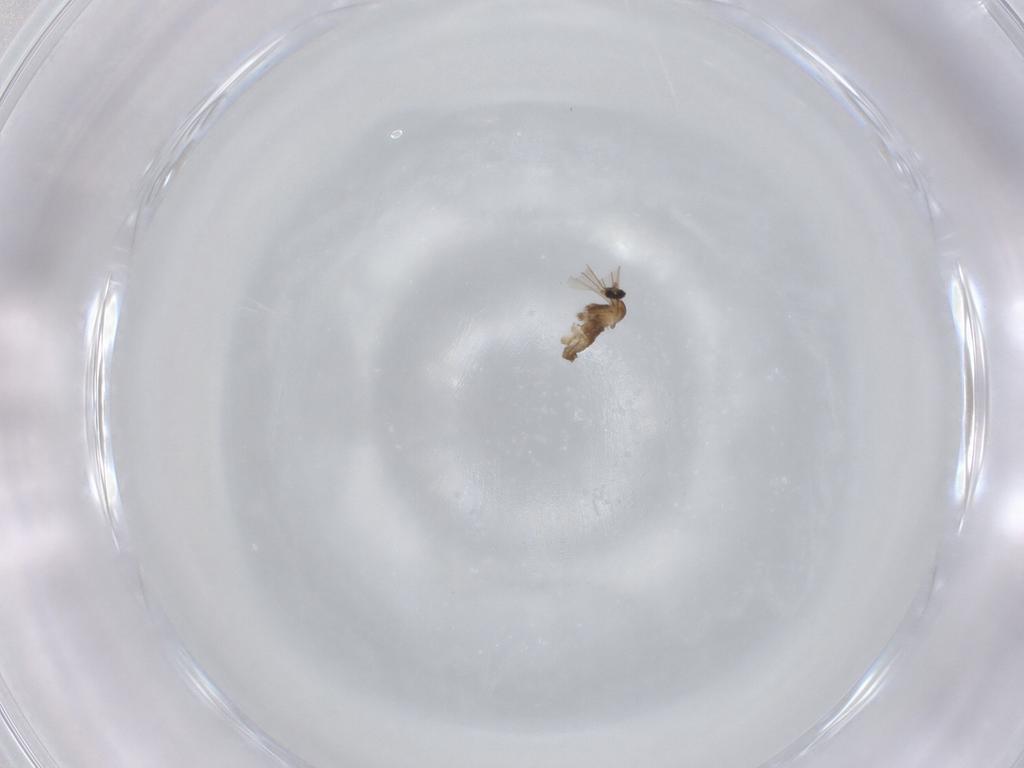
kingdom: Animalia
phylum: Arthropoda
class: Insecta
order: Diptera
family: Cecidomyiidae
